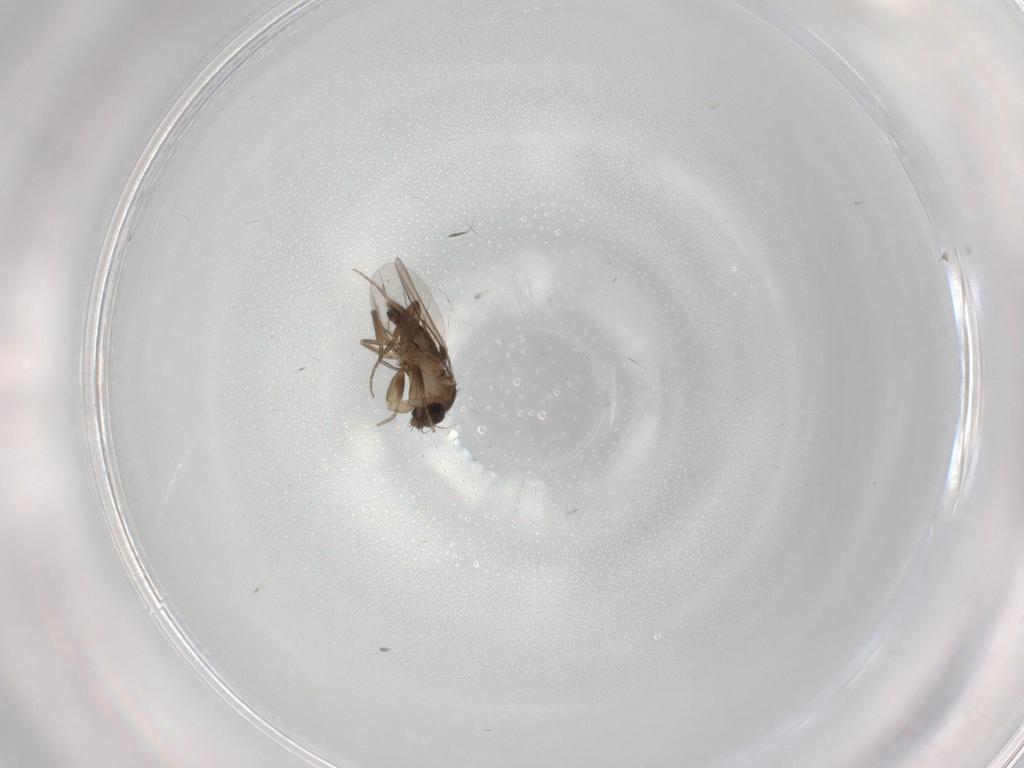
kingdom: Animalia
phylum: Arthropoda
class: Insecta
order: Diptera
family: Phoridae
